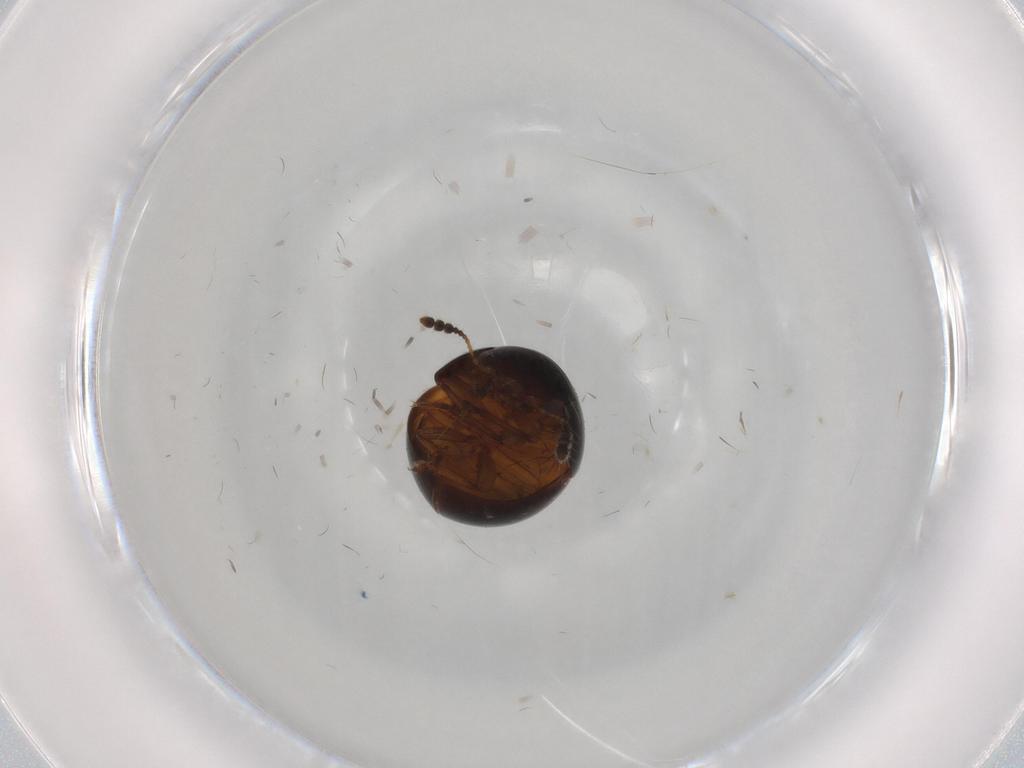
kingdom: Animalia
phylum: Arthropoda
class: Insecta
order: Coleoptera
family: Leiodidae
